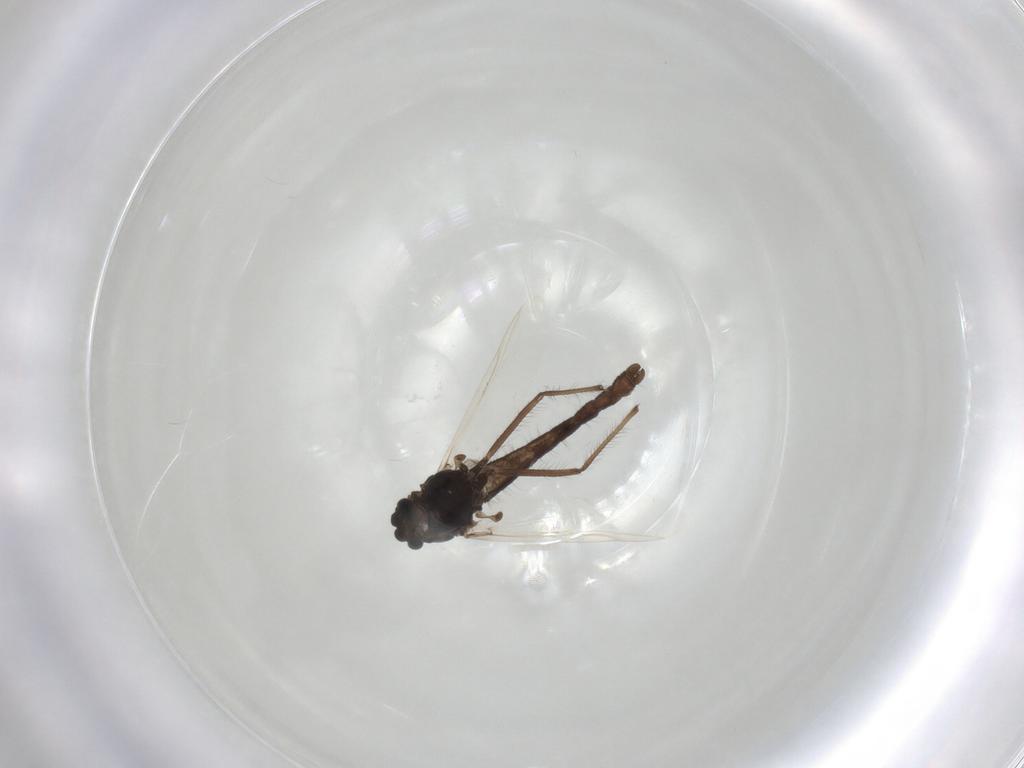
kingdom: Animalia
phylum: Arthropoda
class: Insecta
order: Diptera
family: Chironomidae
